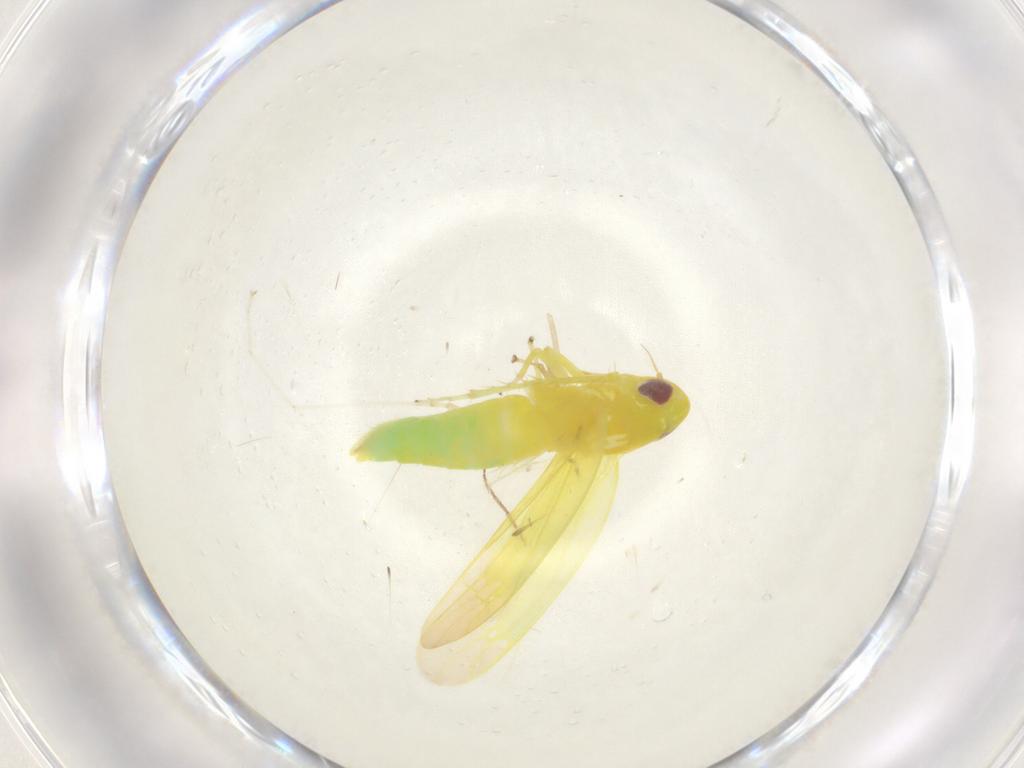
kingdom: Animalia
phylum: Arthropoda
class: Insecta
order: Hemiptera
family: Cicadellidae
